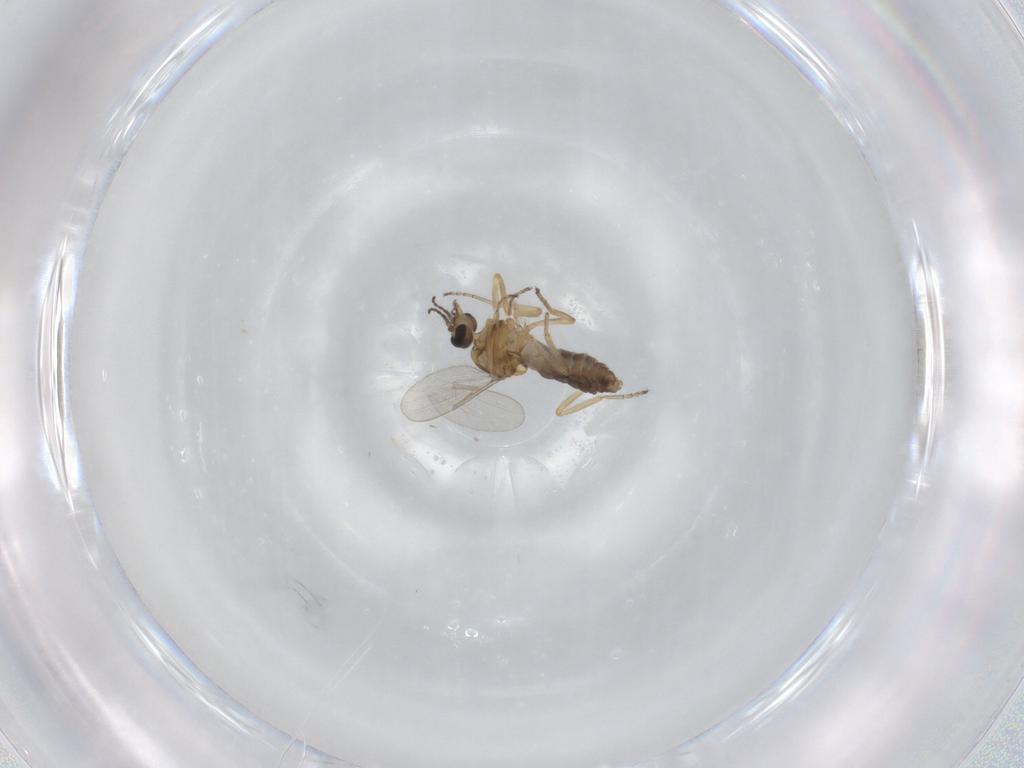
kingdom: Animalia
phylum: Arthropoda
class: Insecta
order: Diptera
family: Ceratopogonidae
